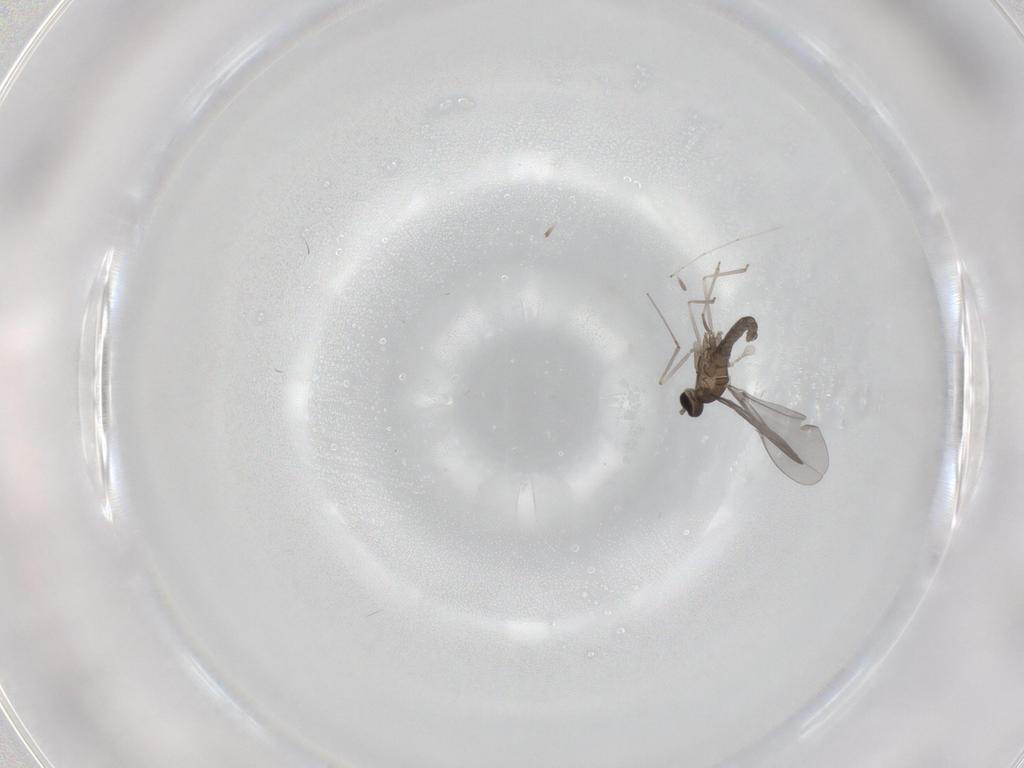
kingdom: Animalia
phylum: Arthropoda
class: Insecta
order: Diptera
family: Cecidomyiidae
